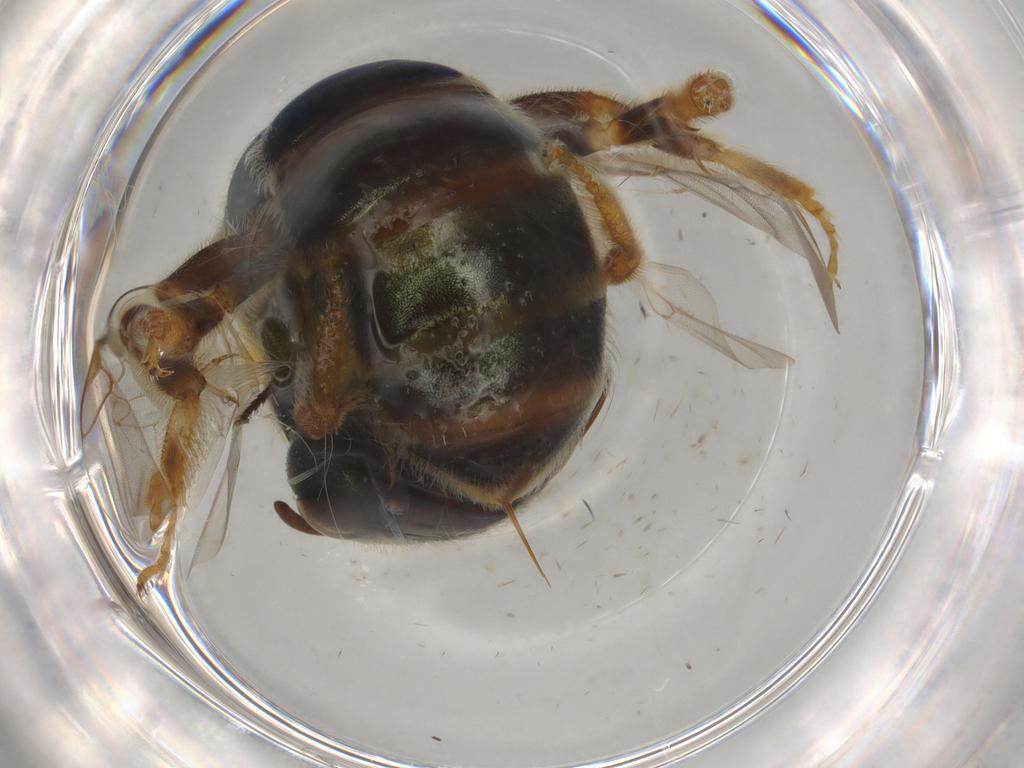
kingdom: Animalia
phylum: Arthropoda
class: Insecta
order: Hymenoptera
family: Halictidae
